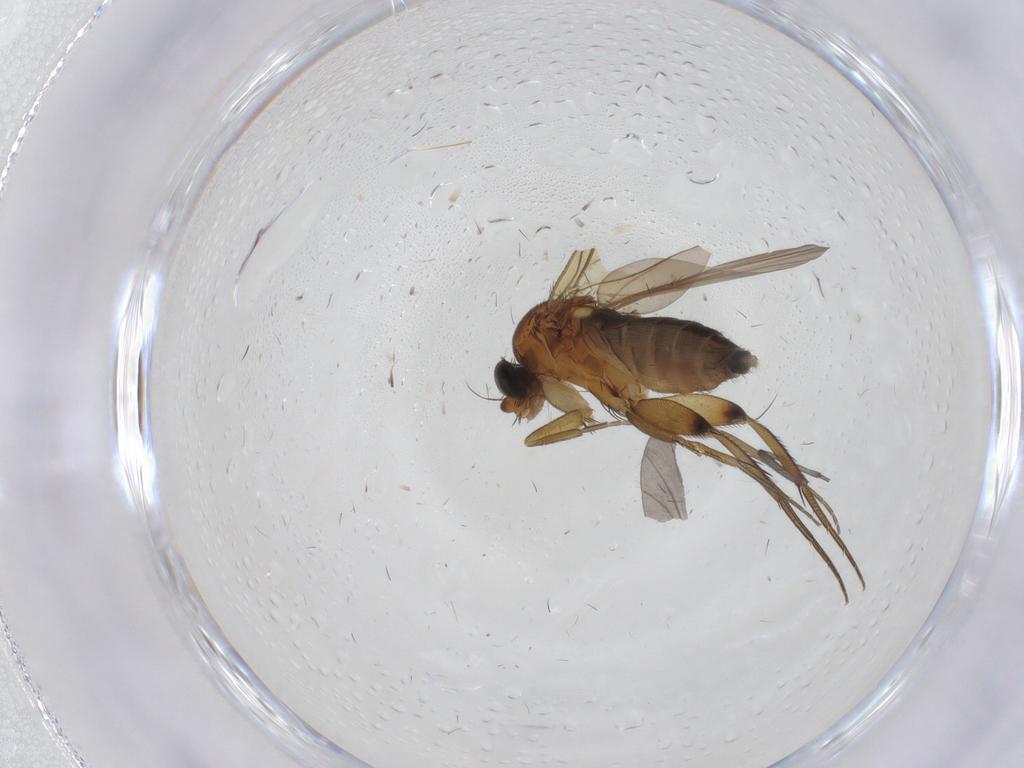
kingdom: Animalia
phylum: Arthropoda
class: Insecta
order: Diptera
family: Phoridae
